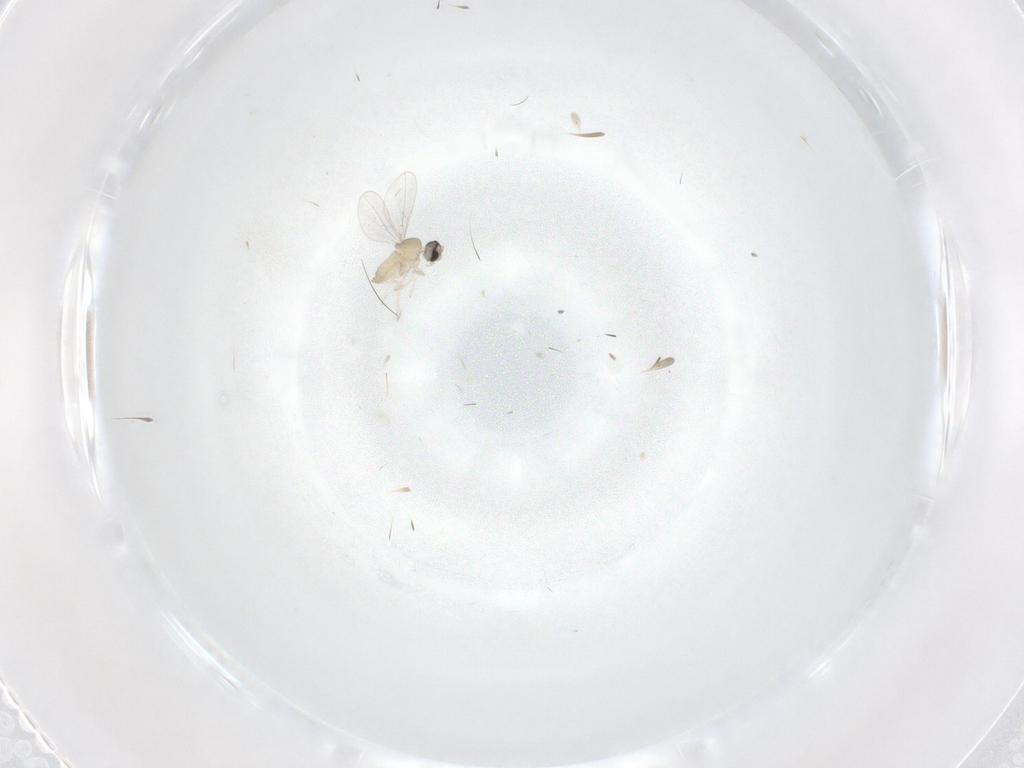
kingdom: Animalia
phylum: Arthropoda
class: Insecta
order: Diptera
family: Cecidomyiidae
